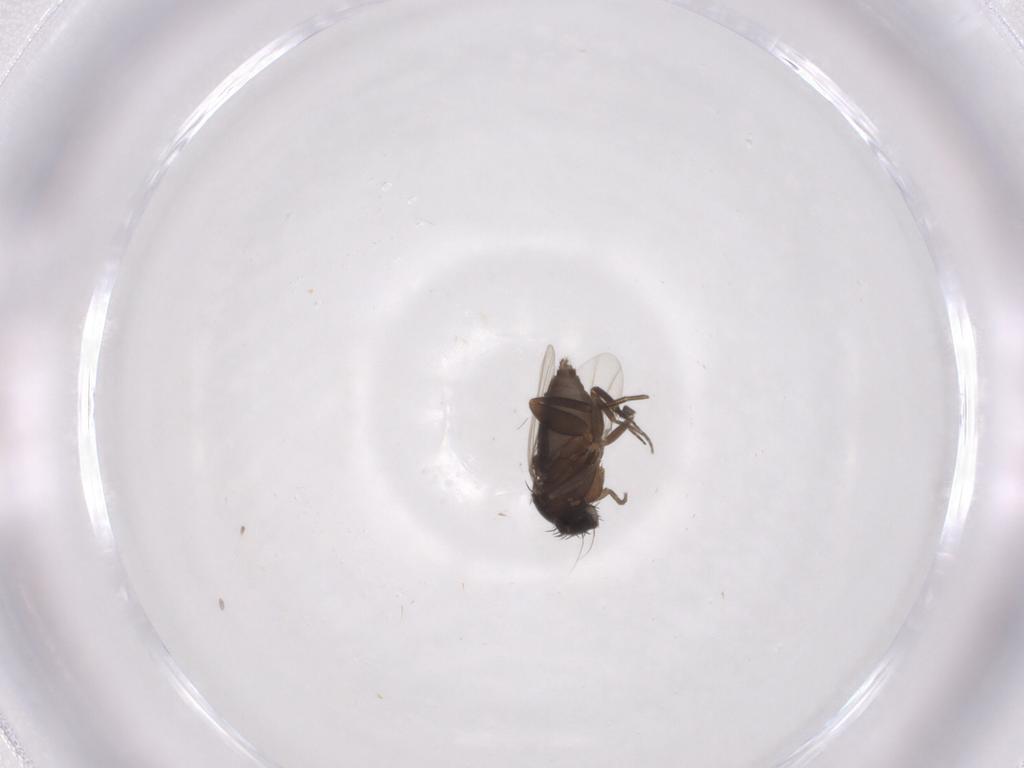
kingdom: Animalia
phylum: Arthropoda
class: Insecta
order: Diptera
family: Phoridae
